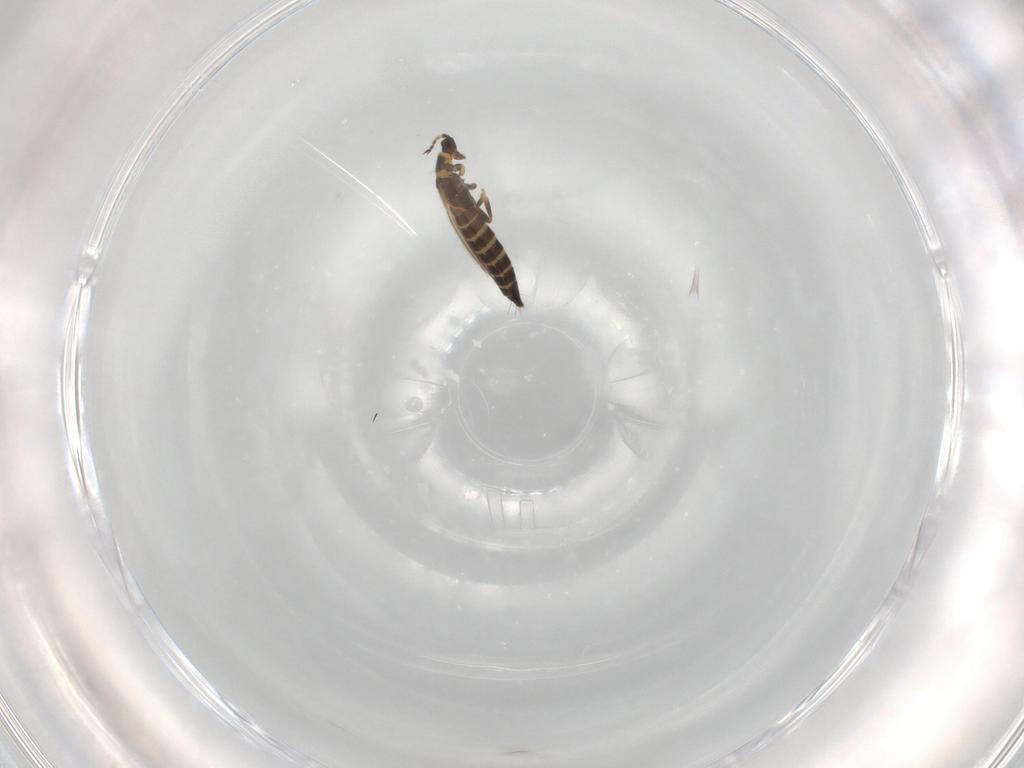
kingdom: Animalia
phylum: Arthropoda
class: Insecta
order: Thysanoptera
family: Thripidae
